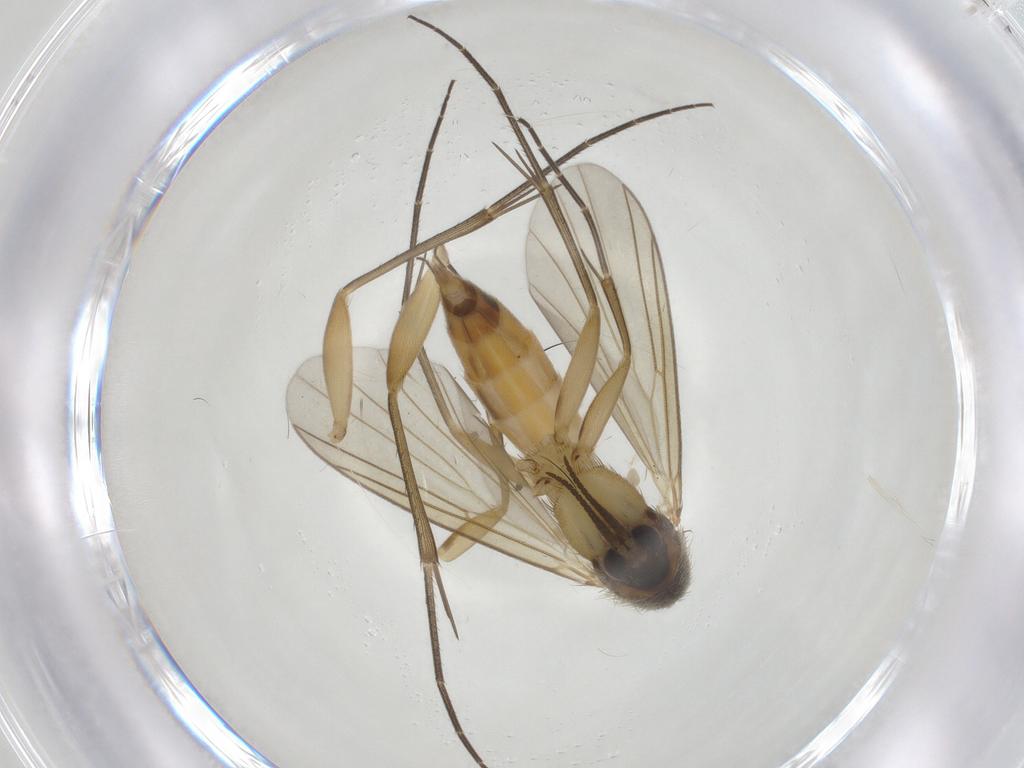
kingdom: Animalia
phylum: Arthropoda
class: Insecta
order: Diptera
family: Mycetophilidae
